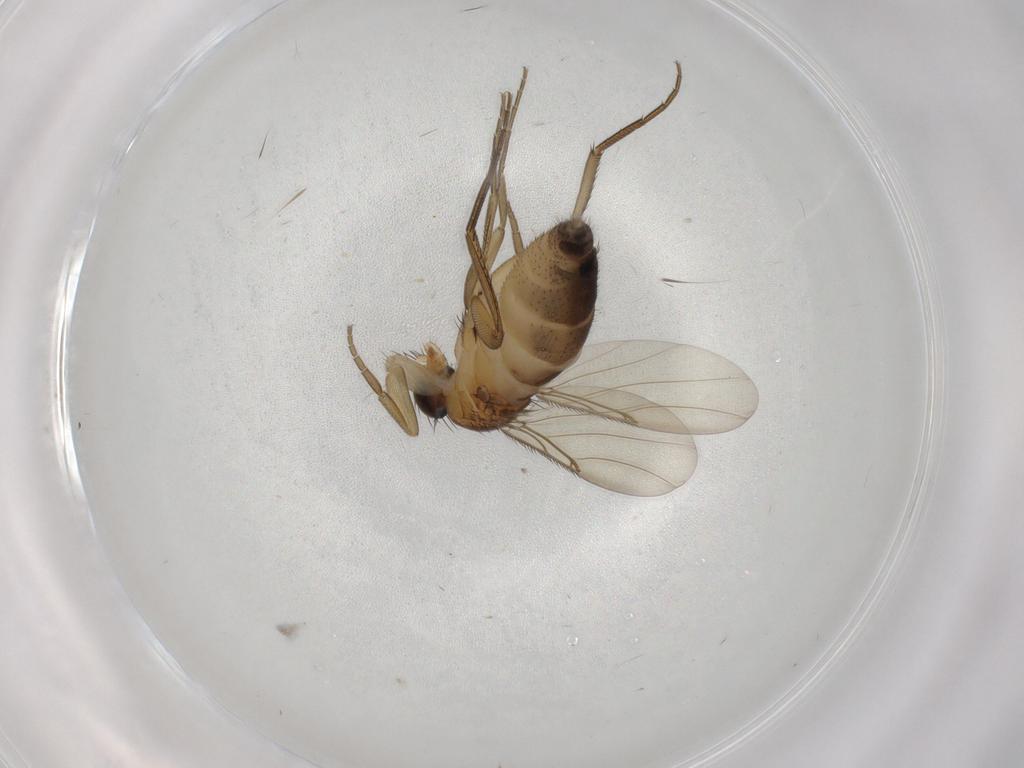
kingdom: Animalia
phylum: Arthropoda
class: Insecta
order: Diptera
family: Phoridae
